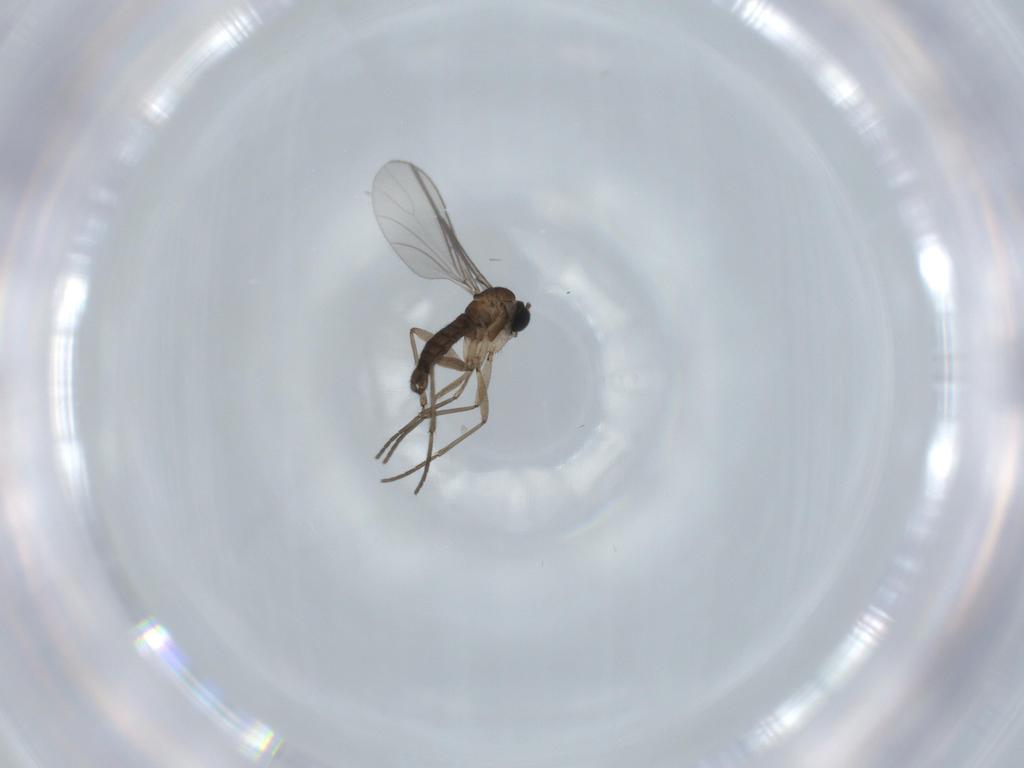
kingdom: Animalia
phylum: Arthropoda
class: Insecta
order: Diptera
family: Sciaridae
